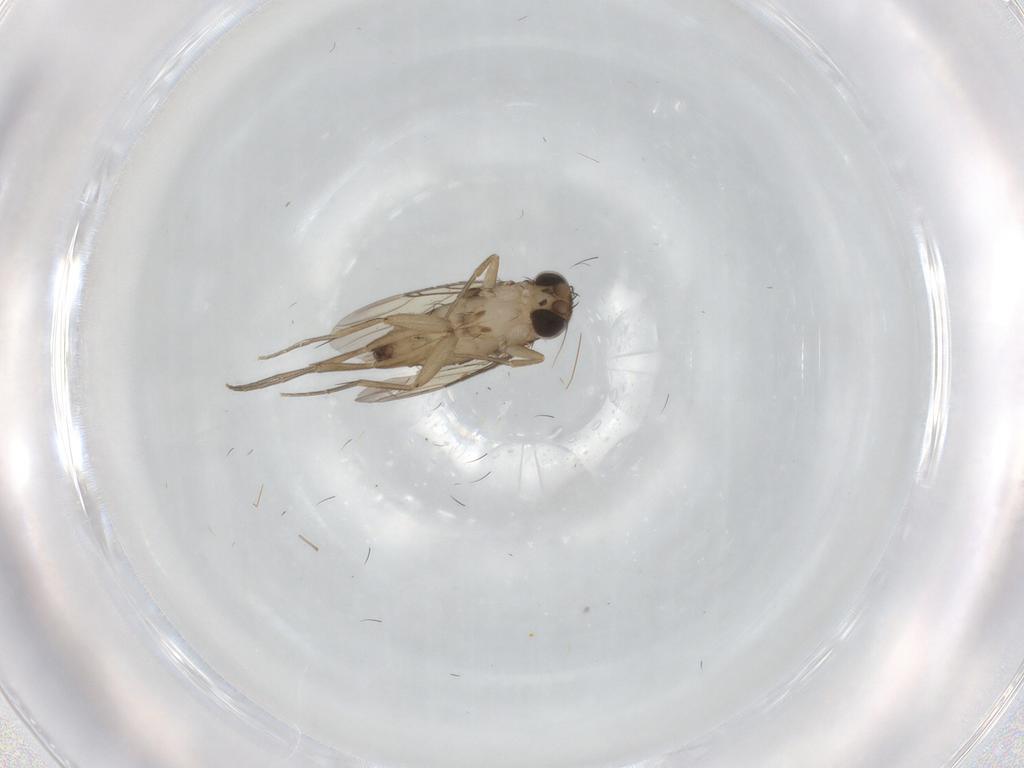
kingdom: Animalia
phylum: Arthropoda
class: Insecta
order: Diptera
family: Phoridae
